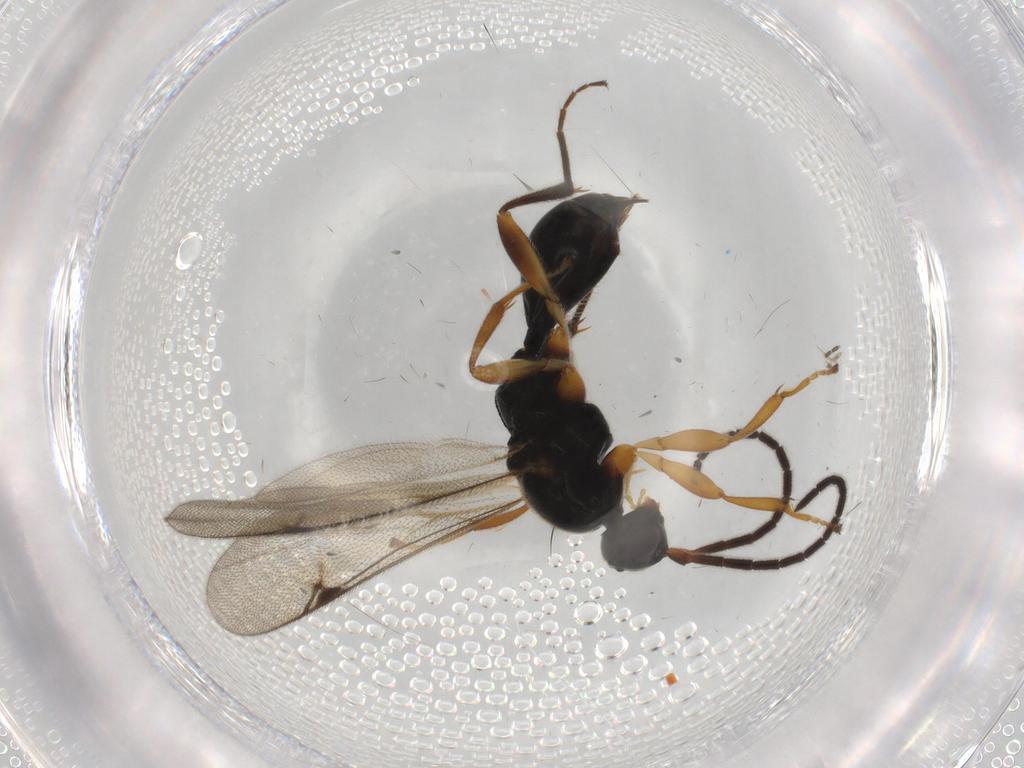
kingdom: Animalia
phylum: Arthropoda
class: Insecta
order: Hymenoptera
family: Proctotrupidae
